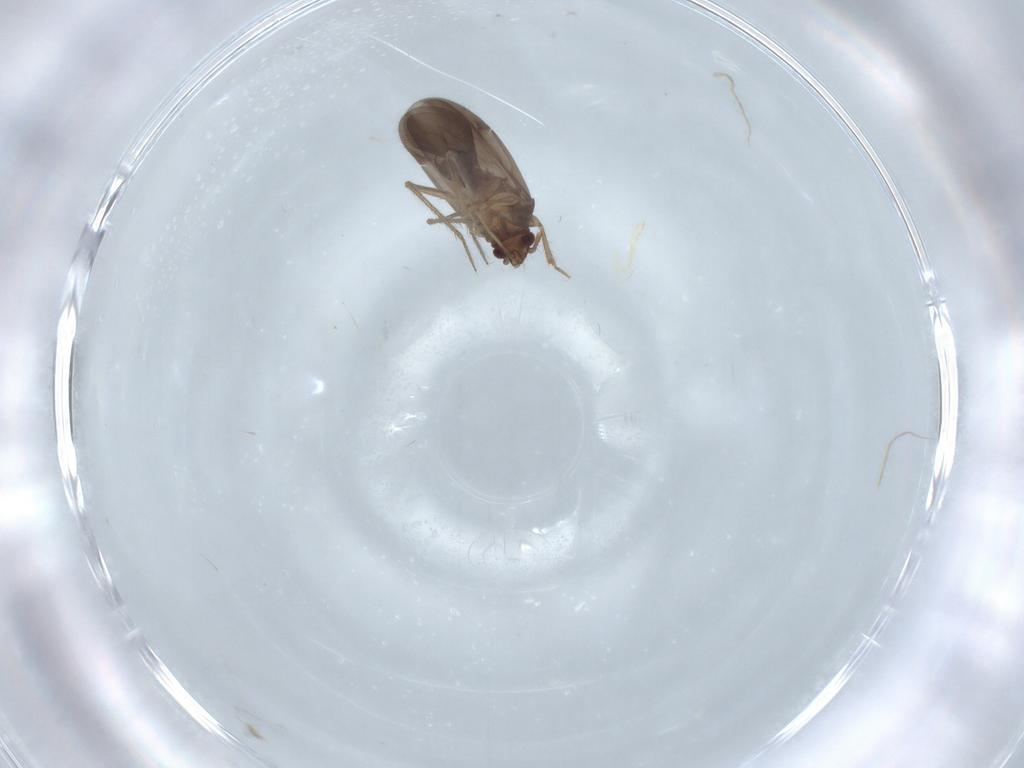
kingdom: Animalia
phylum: Arthropoda
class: Insecta
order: Hemiptera
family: Ceratocombidae
